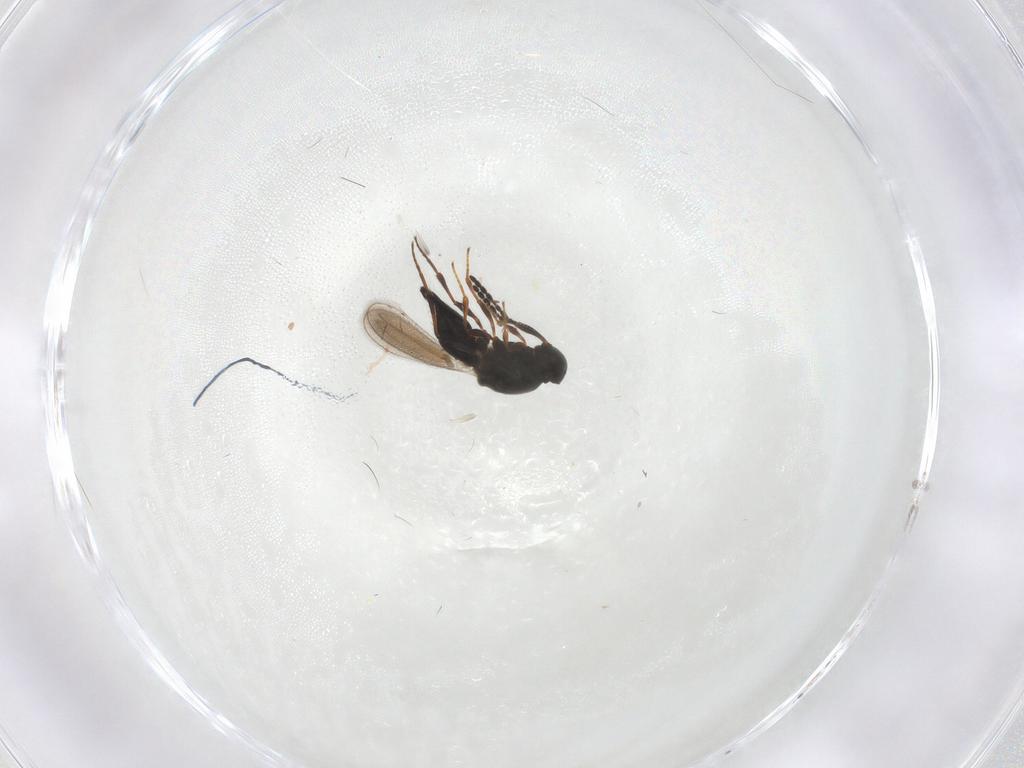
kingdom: Animalia
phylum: Arthropoda
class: Insecta
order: Hymenoptera
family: Platygastridae
